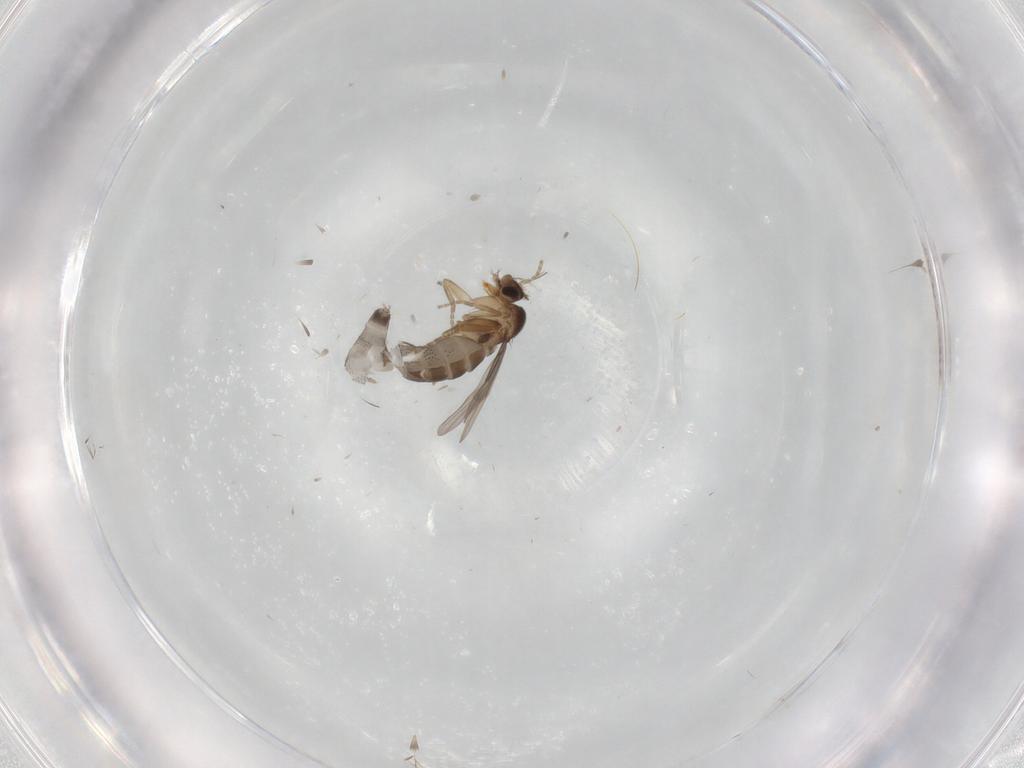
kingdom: Animalia
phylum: Arthropoda
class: Insecta
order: Diptera
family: Phoridae
